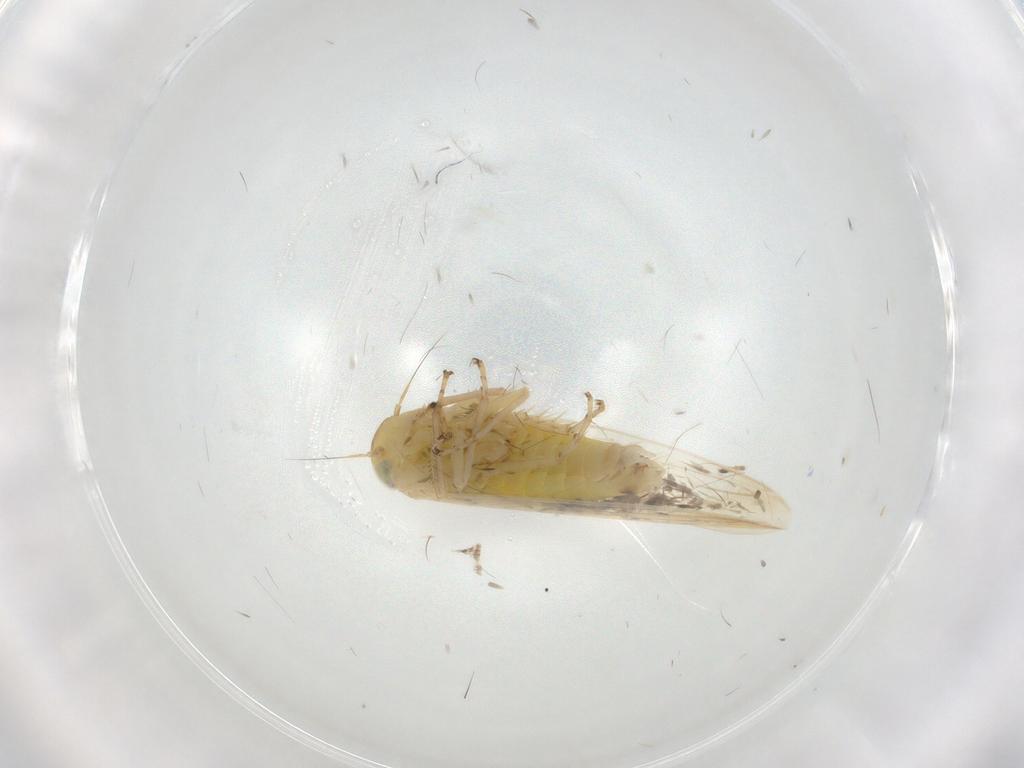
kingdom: Animalia
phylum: Arthropoda
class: Insecta
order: Hemiptera
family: Cicadellidae
